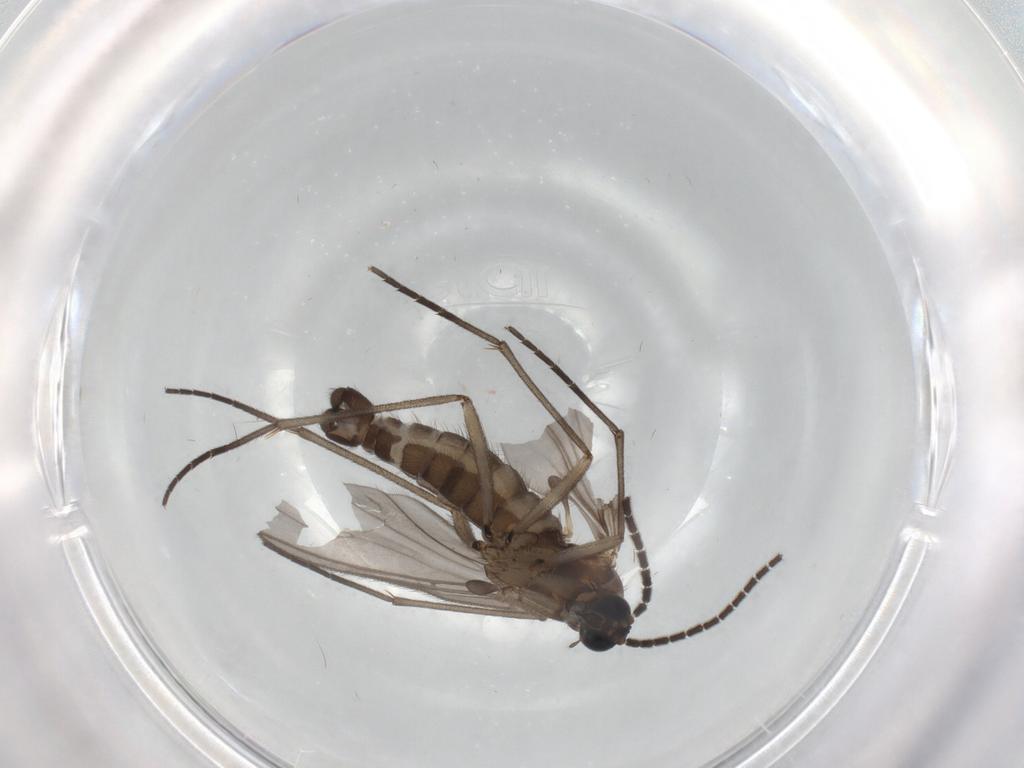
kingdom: Animalia
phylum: Arthropoda
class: Insecta
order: Diptera
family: Sciaridae
